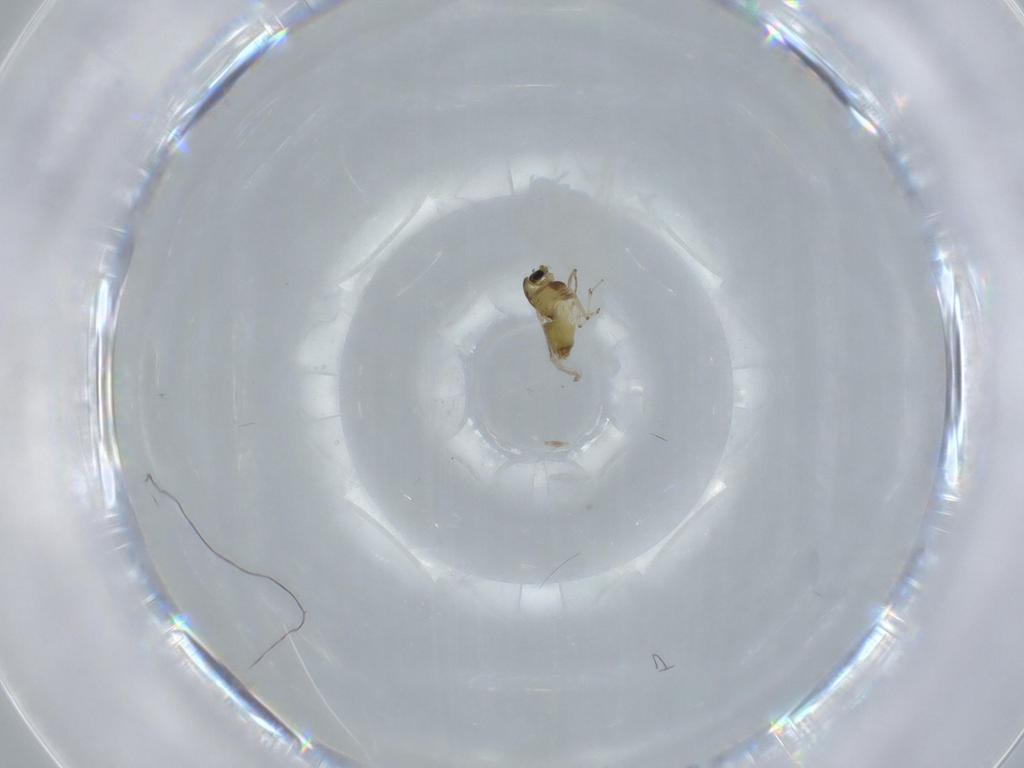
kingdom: Animalia
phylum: Arthropoda
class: Insecta
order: Diptera
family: Chironomidae
